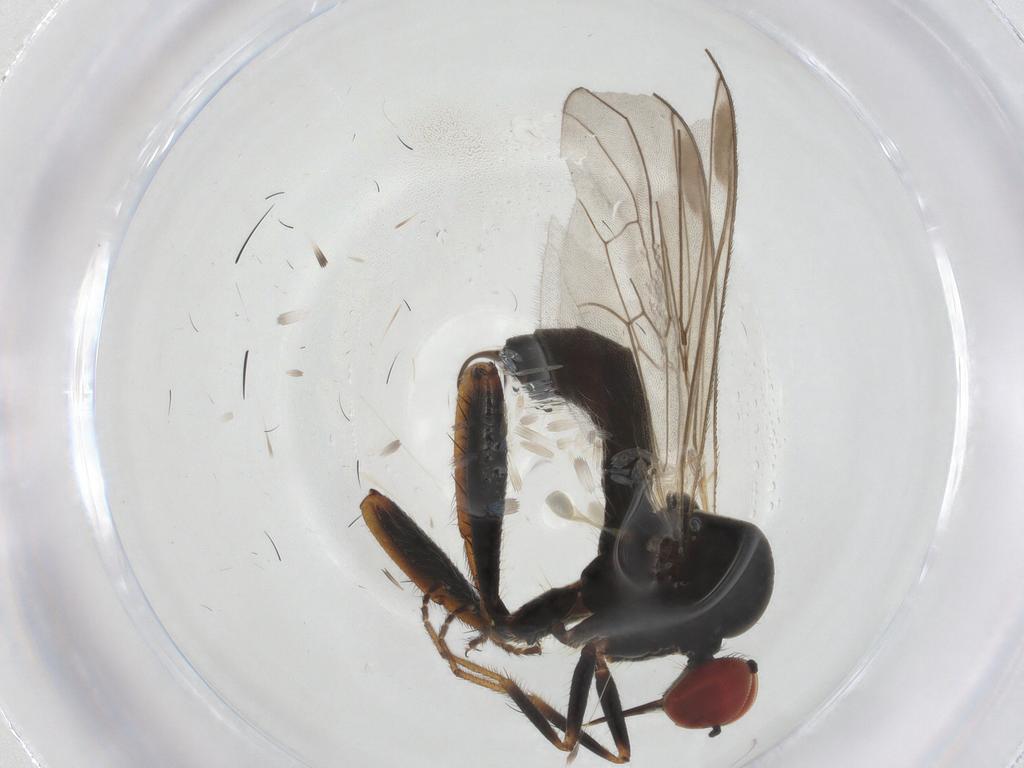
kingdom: Animalia
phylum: Arthropoda
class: Insecta
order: Diptera
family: Hybotidae
